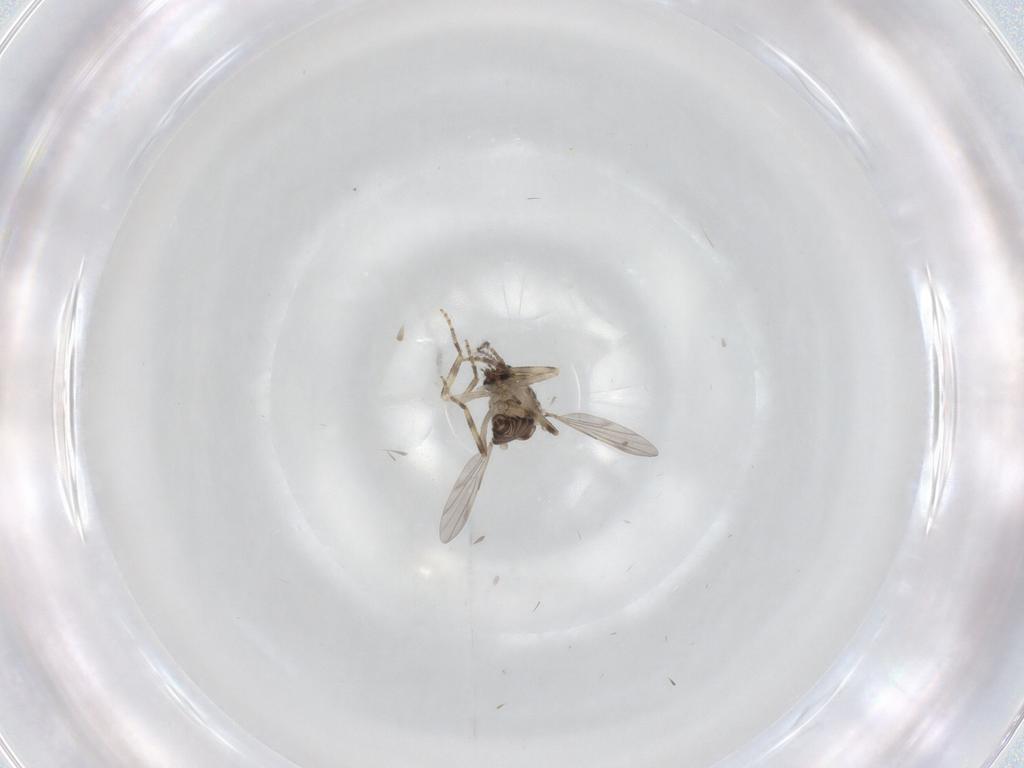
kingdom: Animalia
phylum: Arthropoda
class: Insecta
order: Diptera
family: Ceratopogonidae
